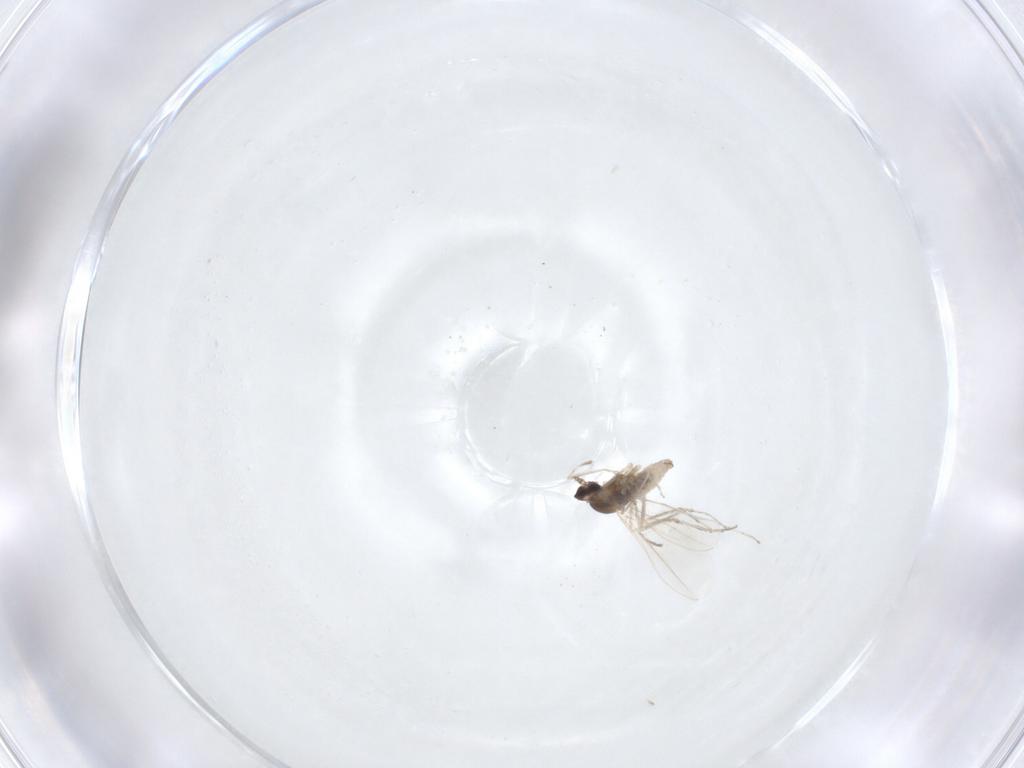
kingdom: Animalia
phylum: Arthropoda
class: Insecta
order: Diptera
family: Cecidomyiidae
